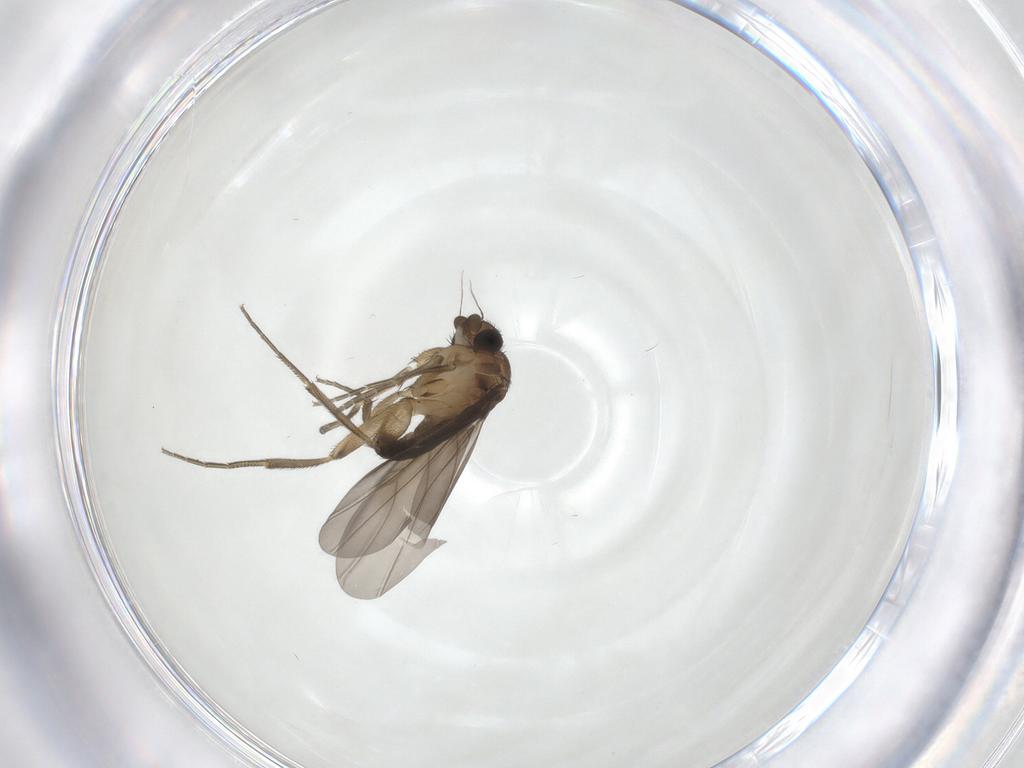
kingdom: Animalia
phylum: Arthropoda
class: Insecta
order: Diptera
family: Phoridae
